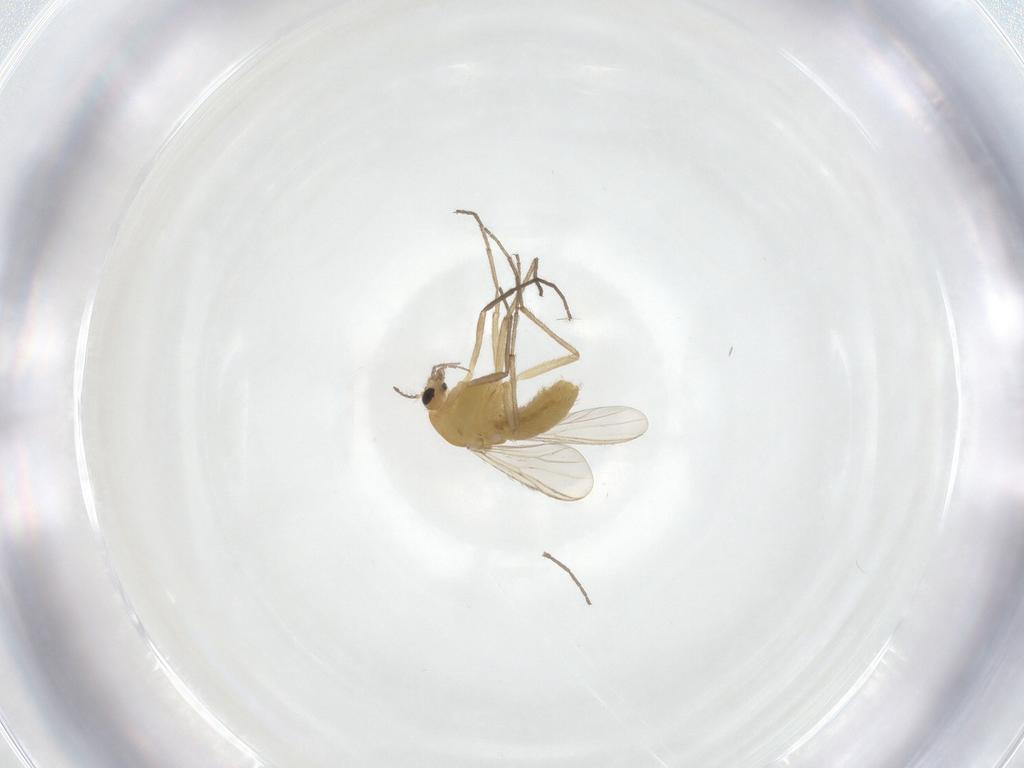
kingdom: Animalia
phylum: Arthropoda
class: Insecta
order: Diptera
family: Chironomidae
